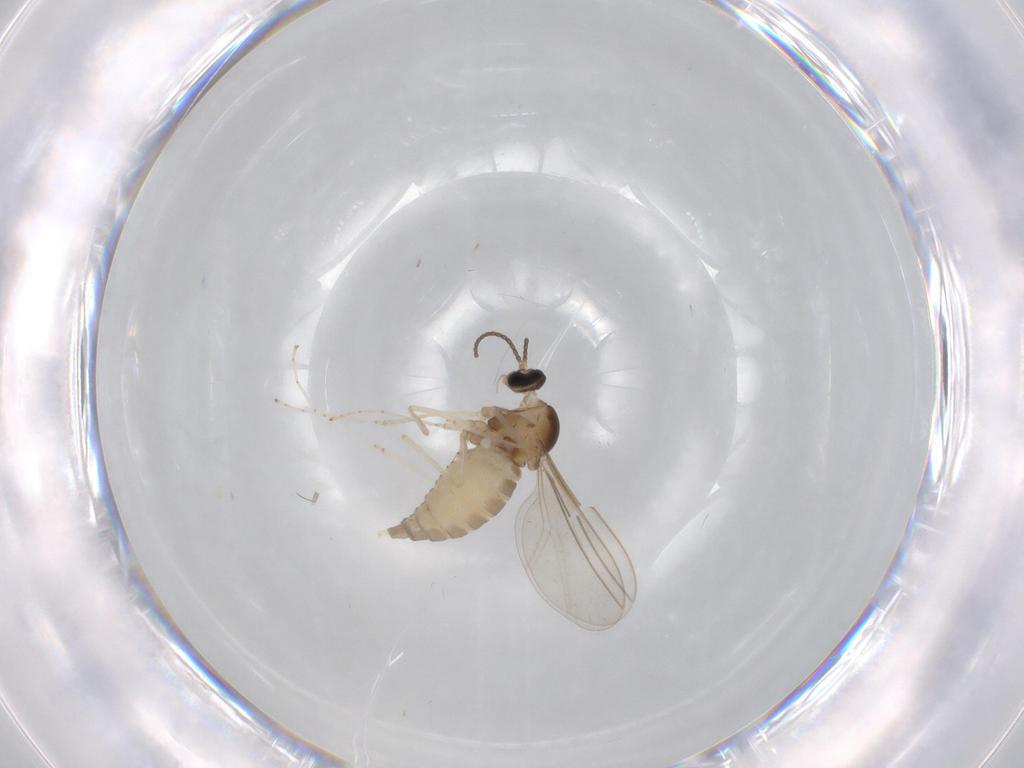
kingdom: Animalia
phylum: Arthropoda
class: Insecta
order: Diptera
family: Cecidomyiidae
